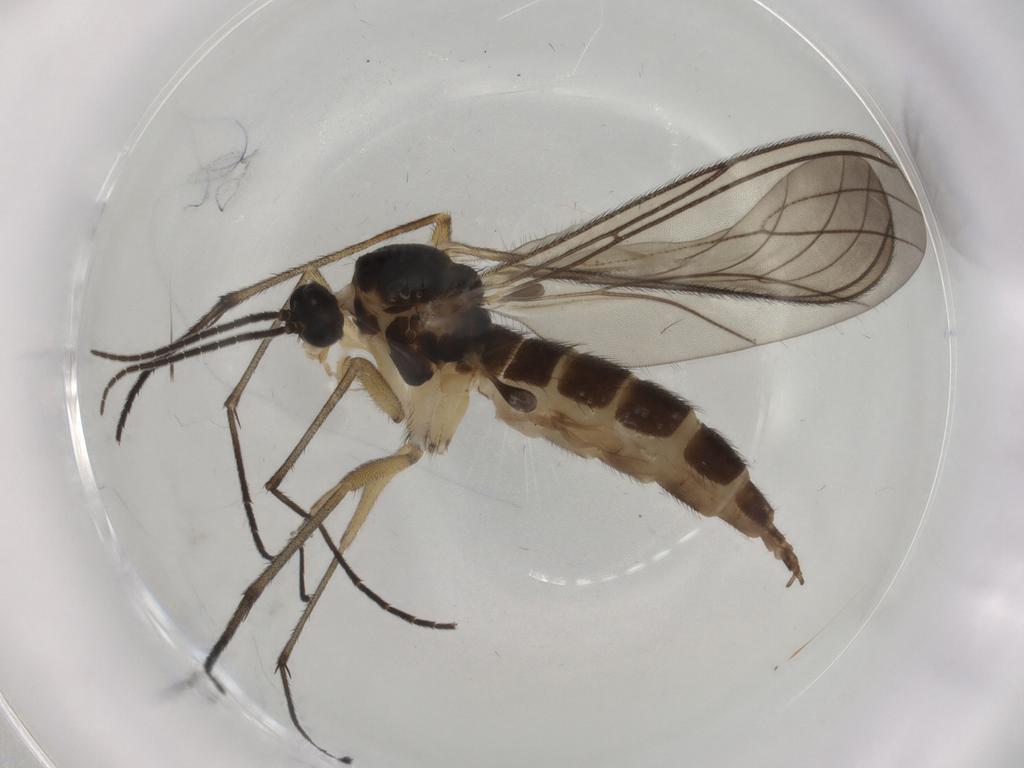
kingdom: Animalia
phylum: Arthropoda
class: Insecta
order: Diptera
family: Sciaridae
